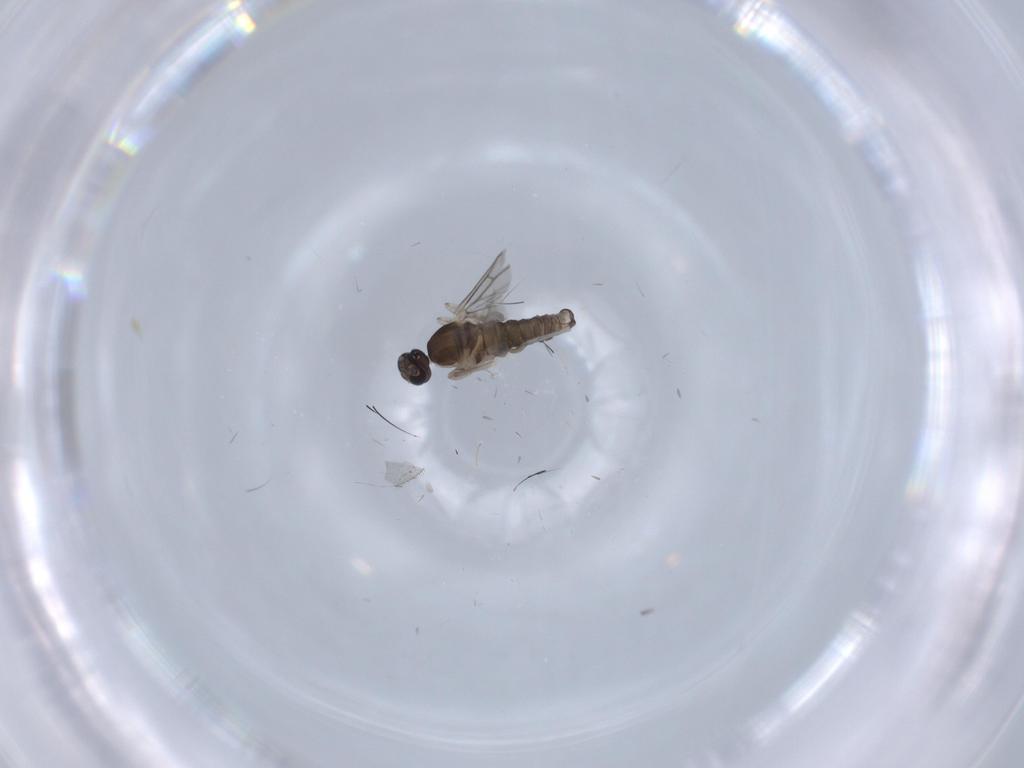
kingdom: Animalia
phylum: Arthropoda
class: Insecta
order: Diptera
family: Cecidomyiidae
